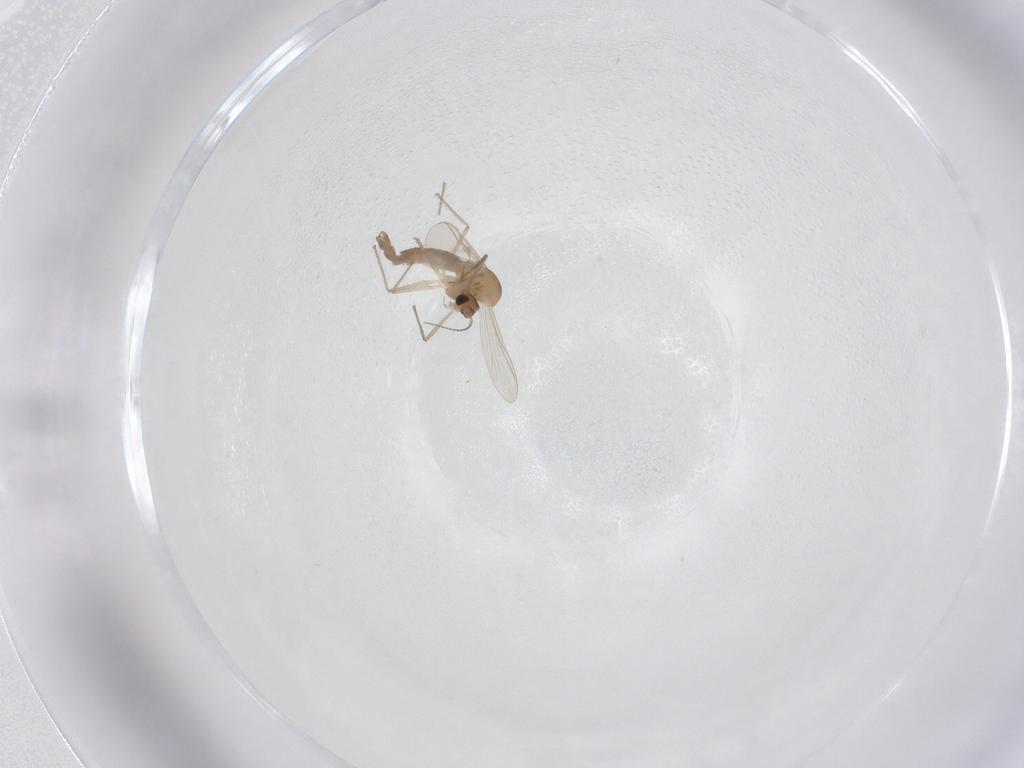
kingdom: Animalia
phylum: Arthropoda
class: Insecta
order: Diptera
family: Chironomidae
